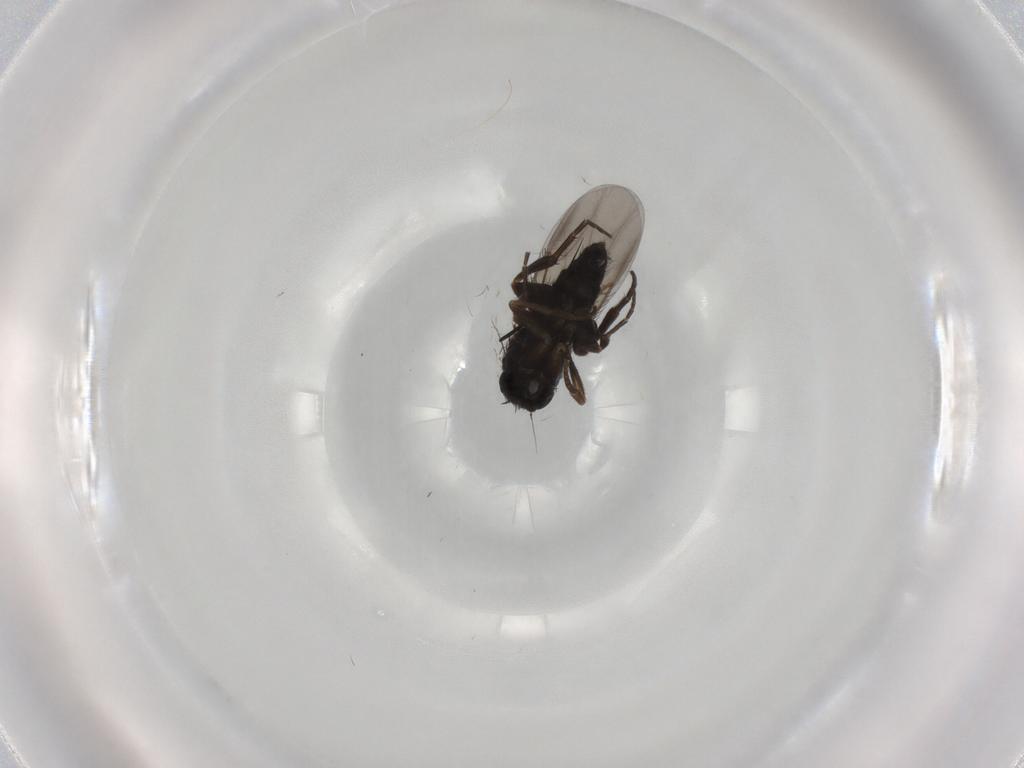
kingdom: Animalia
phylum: Arthropoda
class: Insecta
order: Diptera
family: Phoridae
